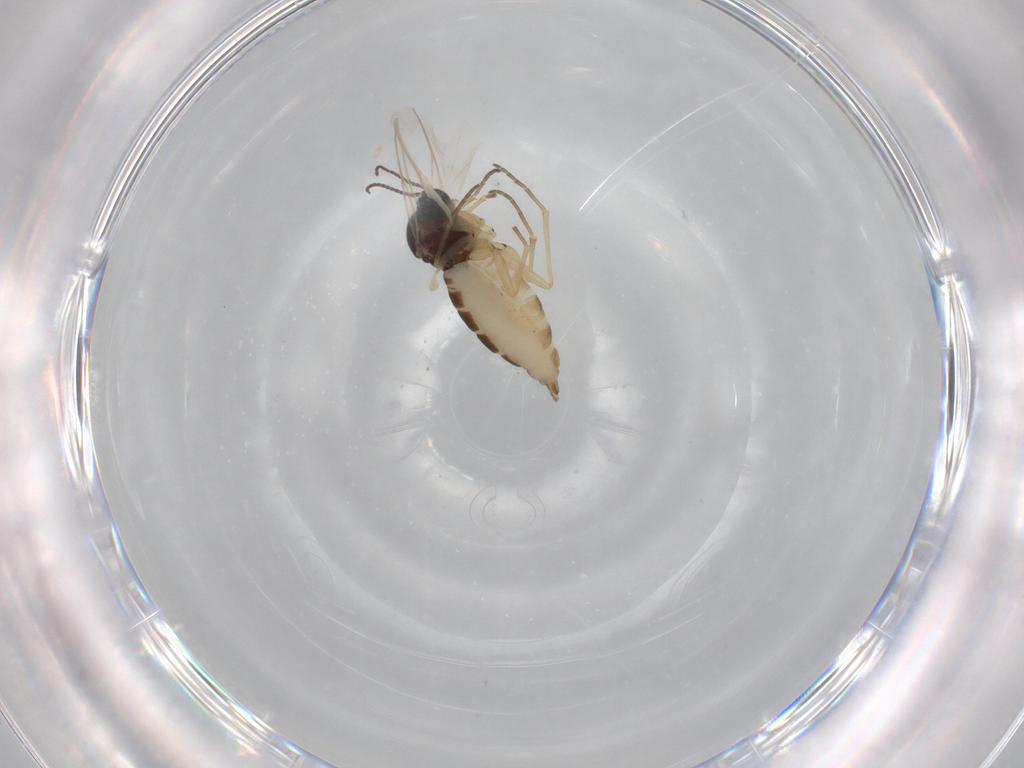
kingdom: Animalia
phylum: Arthropoda
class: Insecta
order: Diptera
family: Sciaridae
